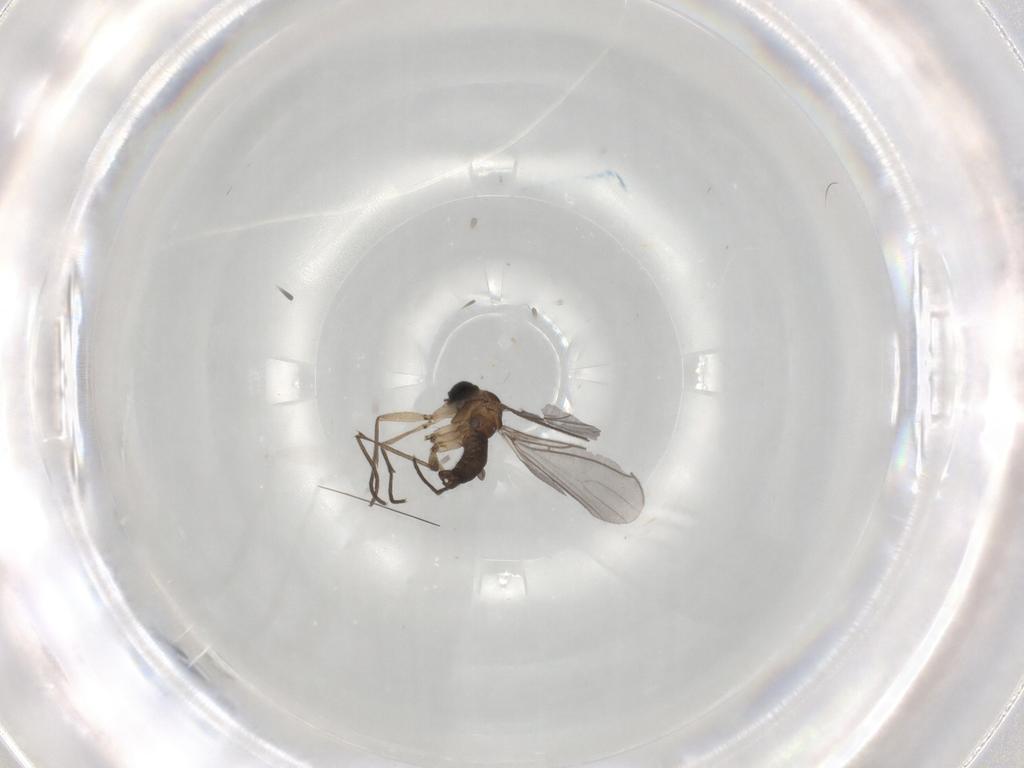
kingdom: Animalia
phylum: Arthropoda
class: Insecta
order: Diptera
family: Sciaridae
